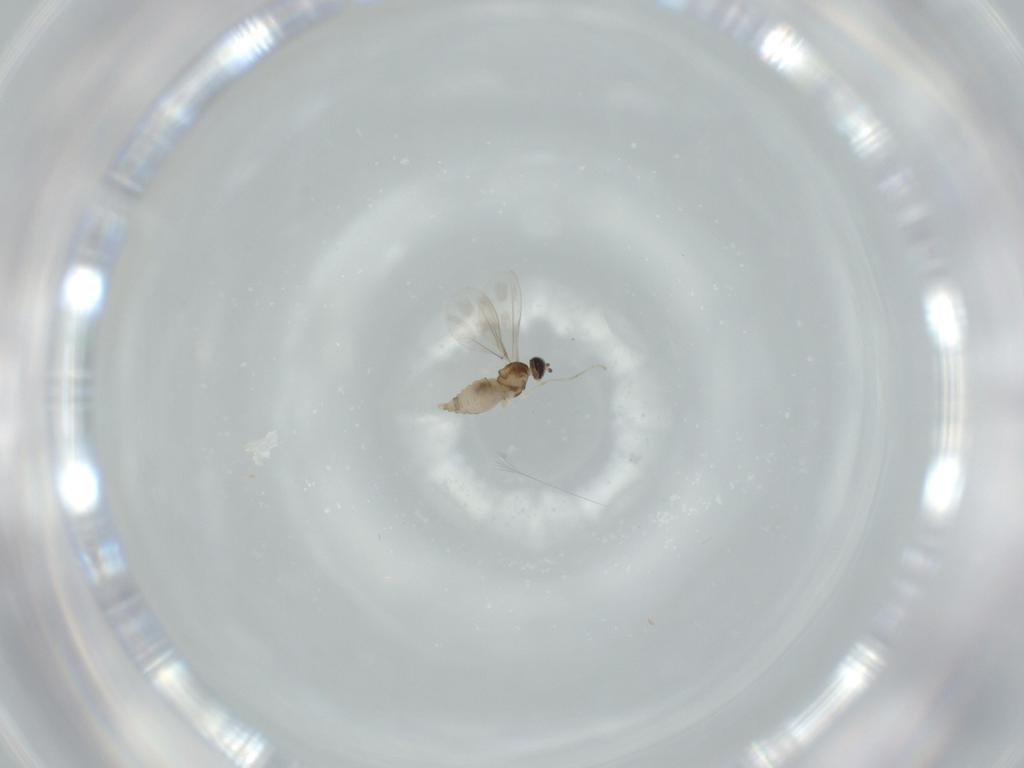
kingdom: Animalia
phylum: Arthropoda
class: Insecta
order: Diptera
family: Cecidomyiidae
